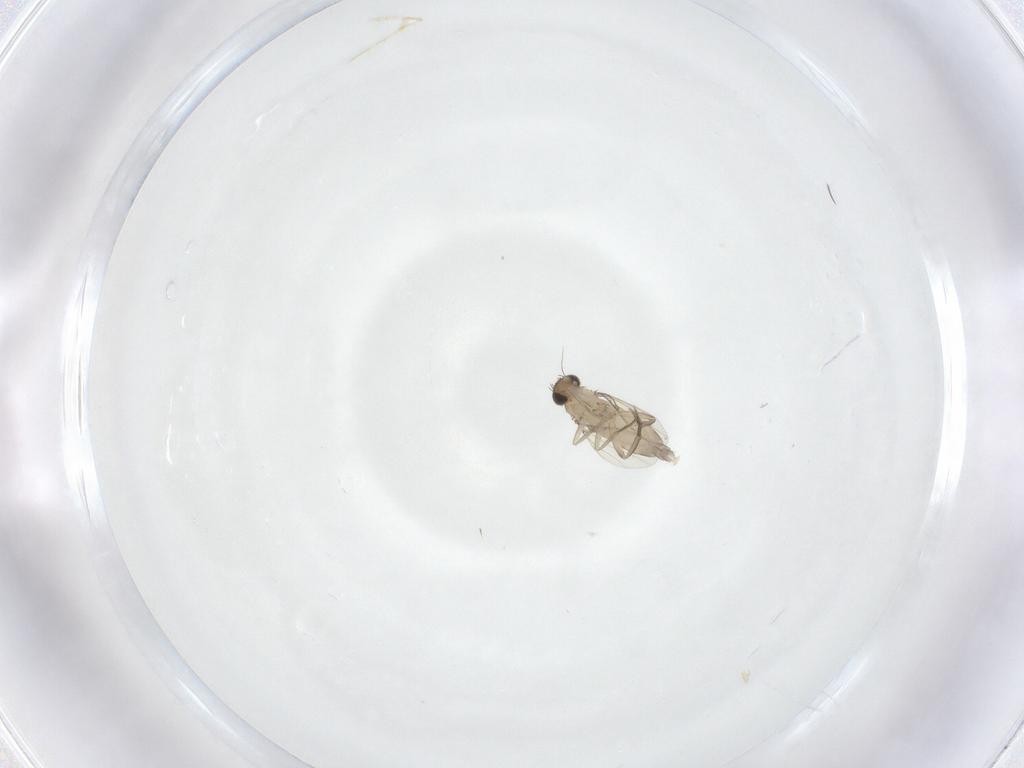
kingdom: Animalia
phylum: Arthropoda
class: Insecta
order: Diptera
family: Phoridae
